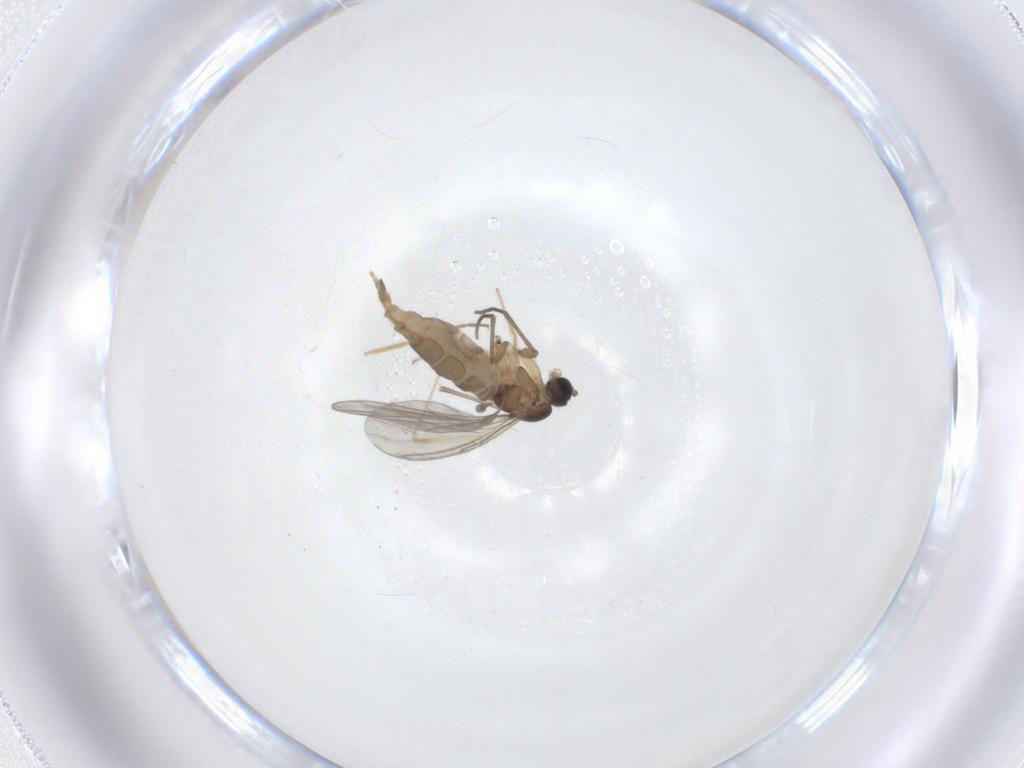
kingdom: Animalia
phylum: Arthropoda
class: Insecta
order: Diptera
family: Sciaridae
